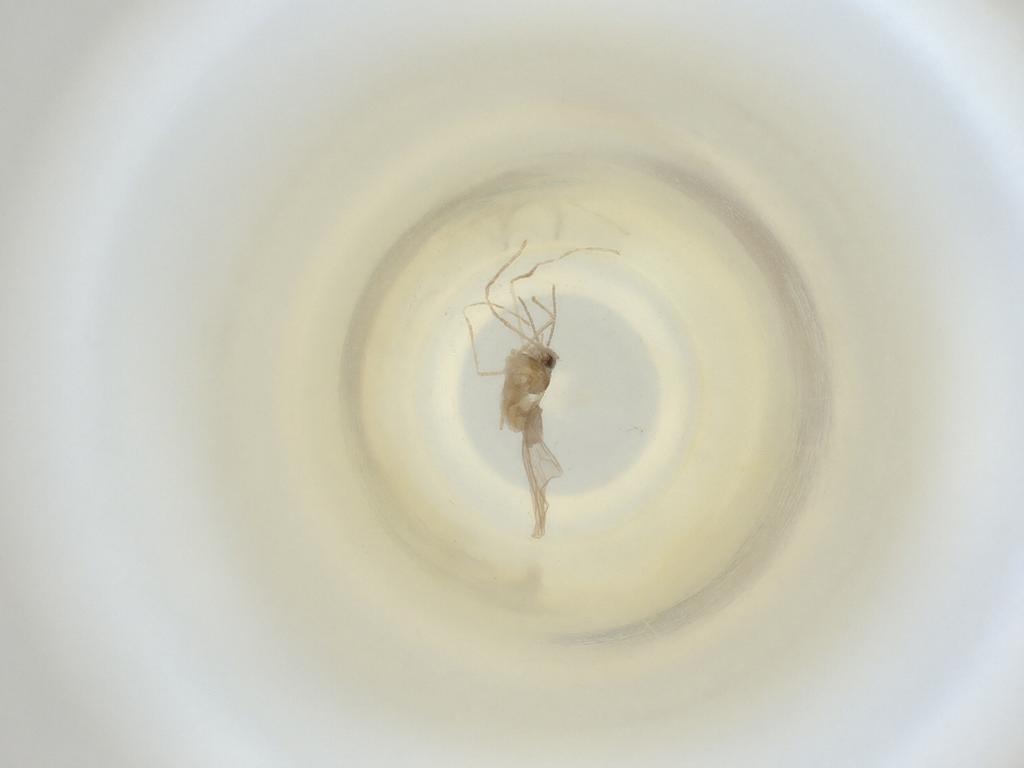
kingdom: Animalia
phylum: Arthropoda
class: Insecta
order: Diptera
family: Cecidomyiidae
